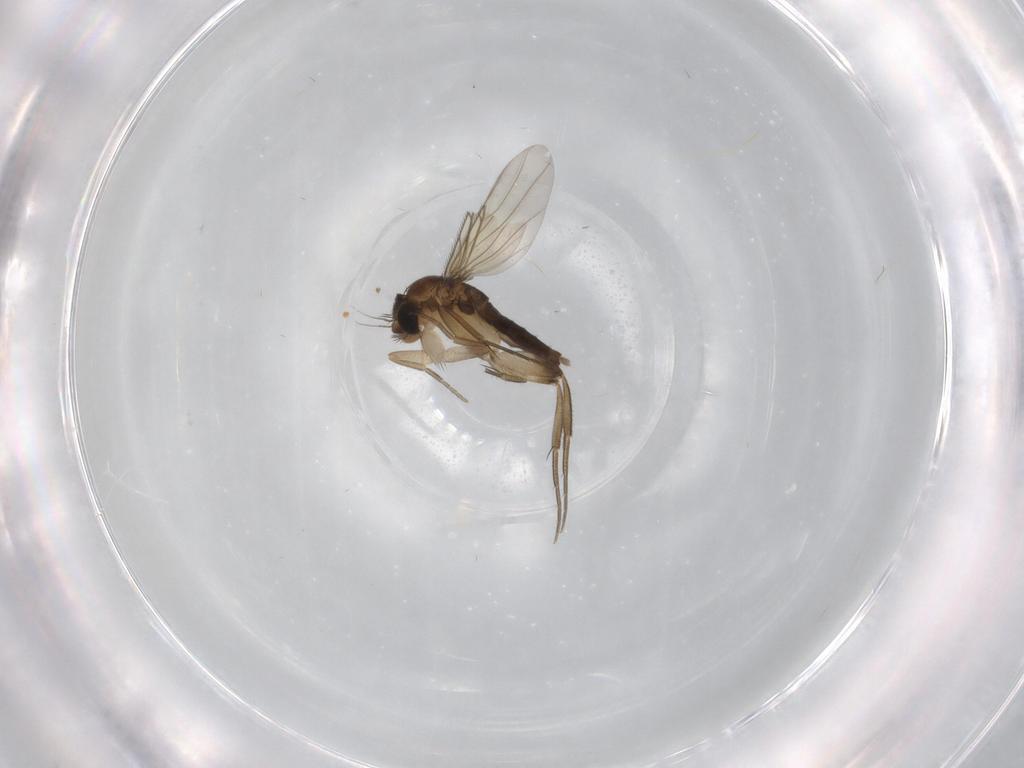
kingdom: Animalia
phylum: Arthropoda
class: Insecta
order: Diptera
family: Phoridae
